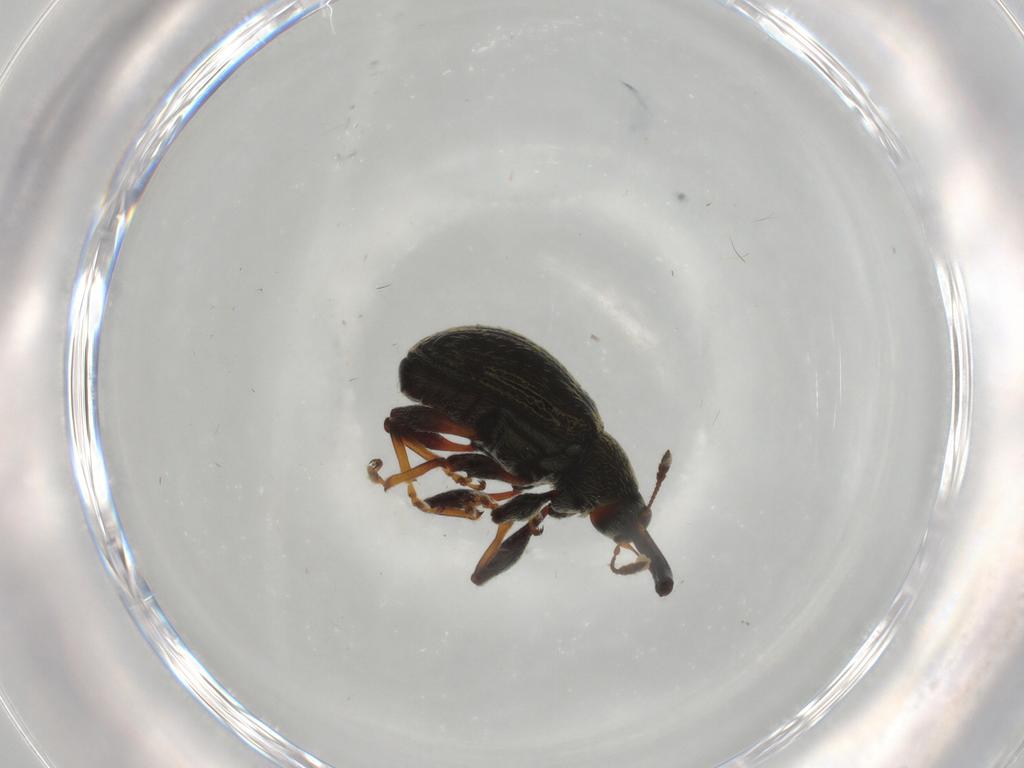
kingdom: Animalia
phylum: Arthropoda
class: Insecta
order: Coleoptera
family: Curculionidae
